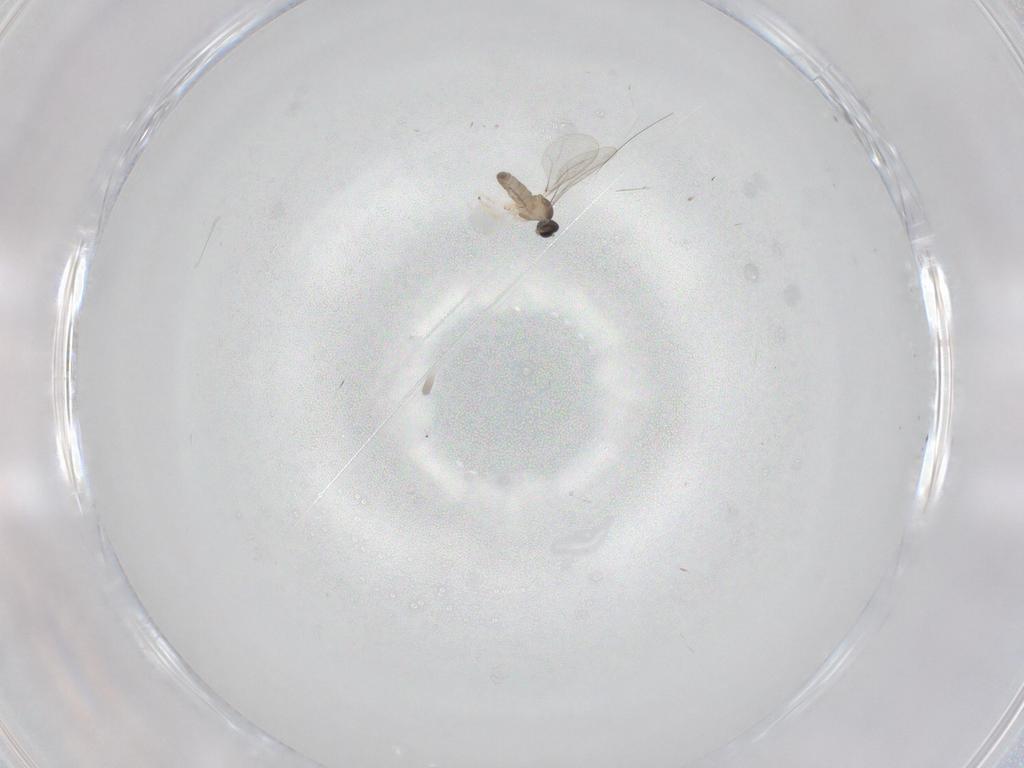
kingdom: Animalia
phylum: Arthropoda
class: Insecta
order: Diptera
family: Cecidomyiidae
